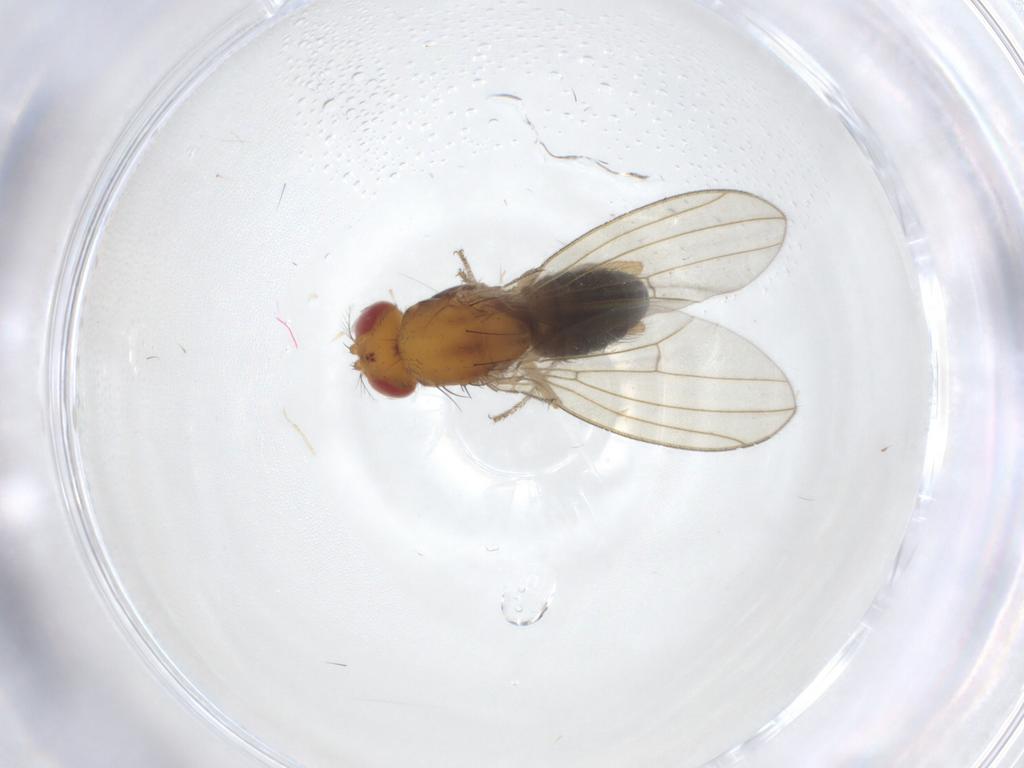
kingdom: Animalia
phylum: Arthropoda
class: Insecta
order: Diptera
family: Drosophilidae
